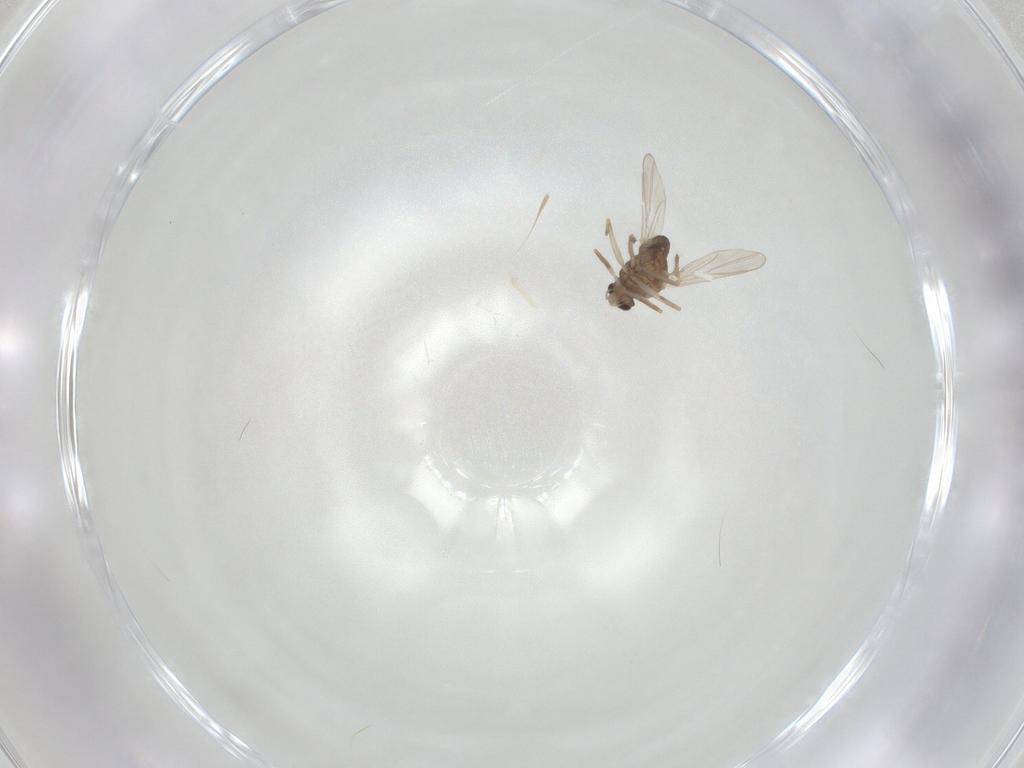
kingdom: Animalia
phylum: Arthropoda
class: Insecta
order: Diptera
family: Chironomidae
